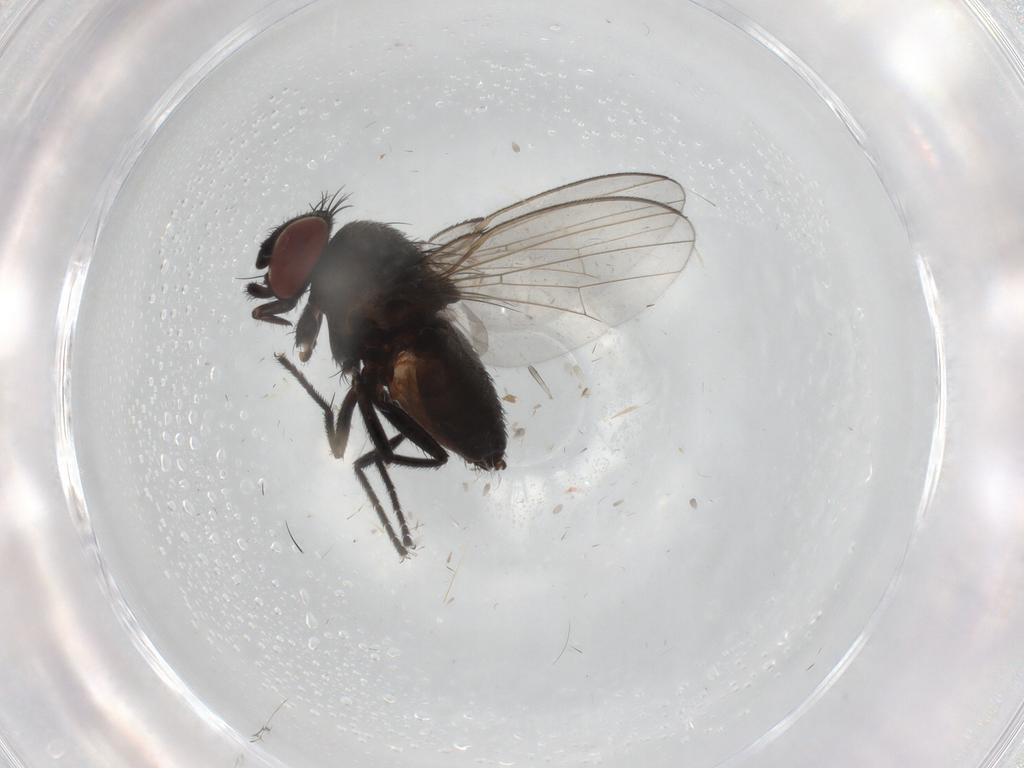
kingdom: Animalia
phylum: Arthropoda
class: Insecta
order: Diptera
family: Milichiidae
